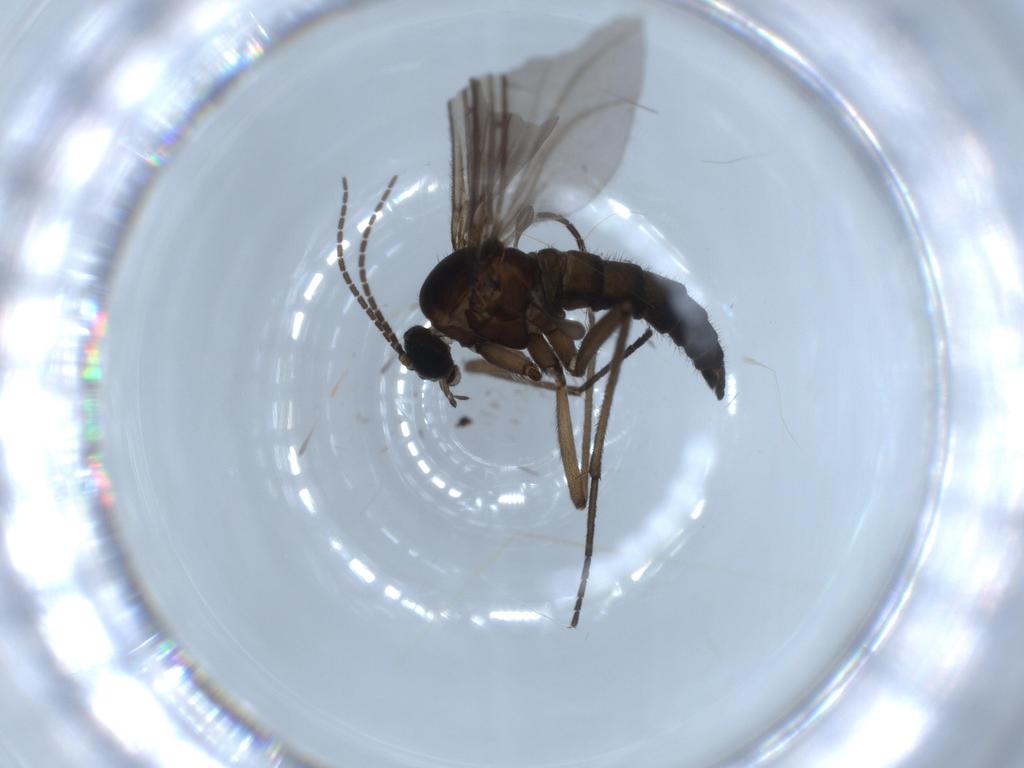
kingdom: Animalia
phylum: Arthropoda
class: Insecta
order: Diptera
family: Sciaridae
